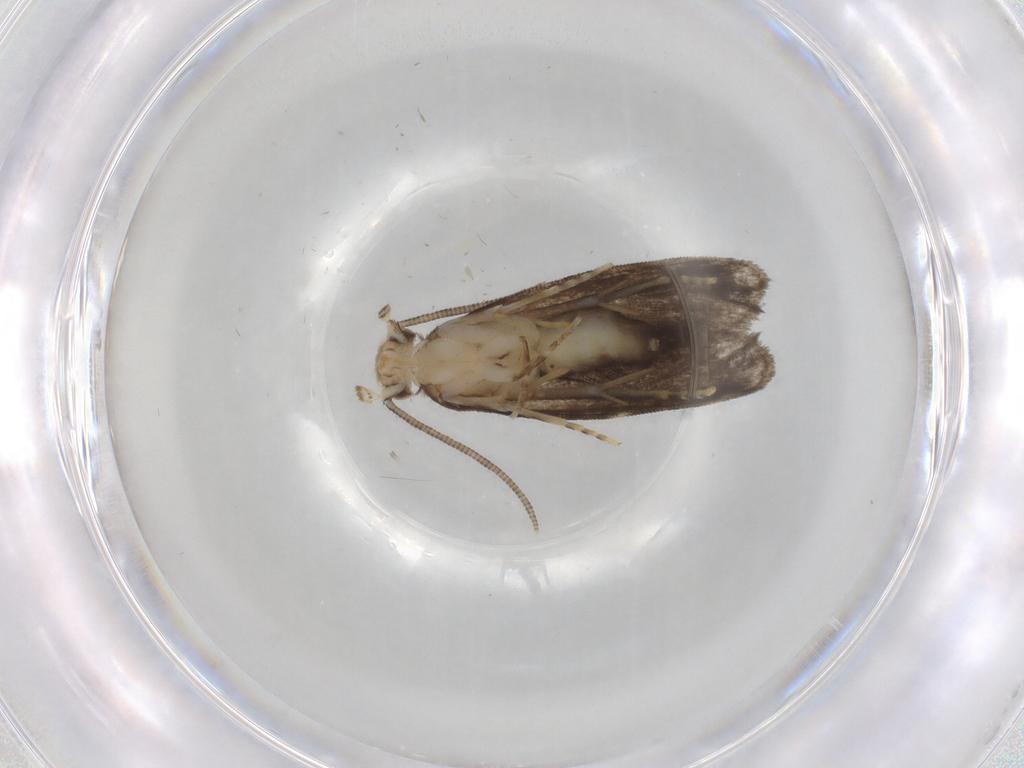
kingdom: Animalia
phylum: Arthropoda
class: Insecta
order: Lepidoptera
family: Dryadaulidae
